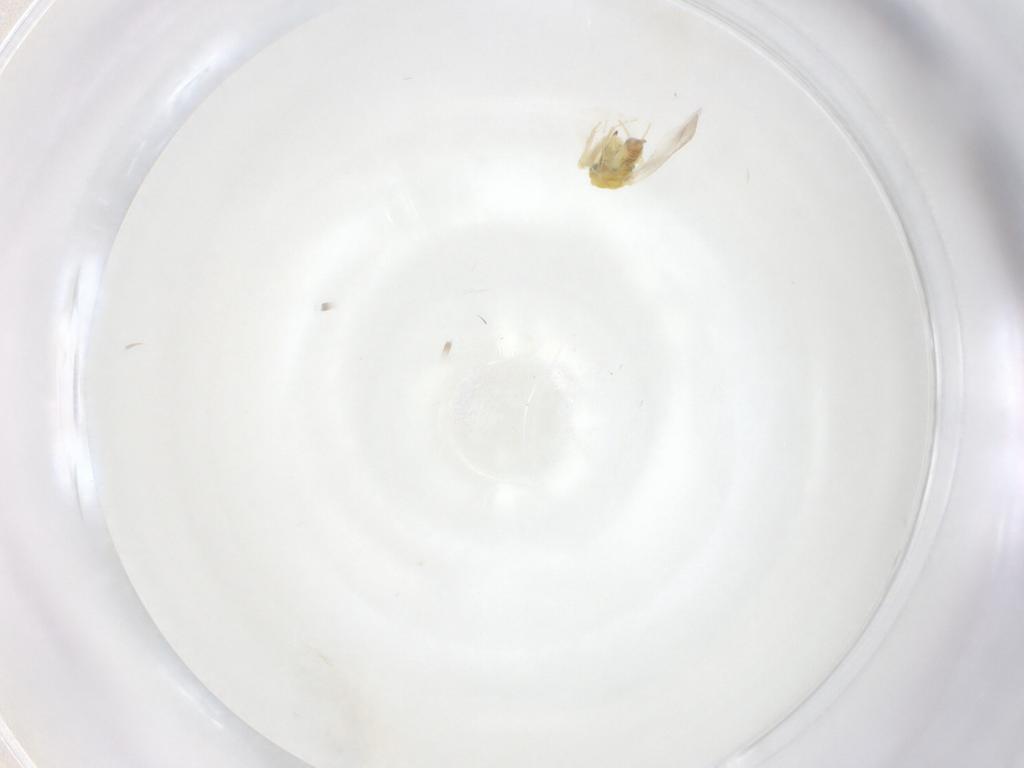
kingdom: Animalia
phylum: Arthropoda
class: Insecta
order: Hemiptera
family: Aleyrodidae
